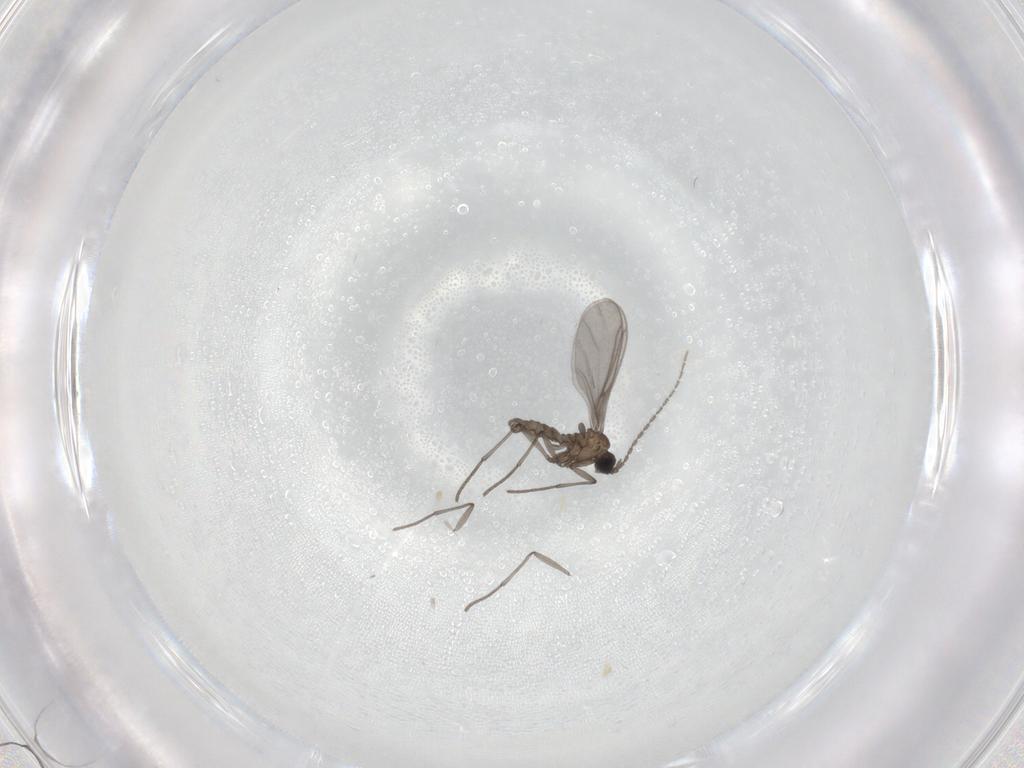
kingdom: Animalia
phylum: Arthropoda
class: Insecta
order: Diptera
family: Sciaridae
